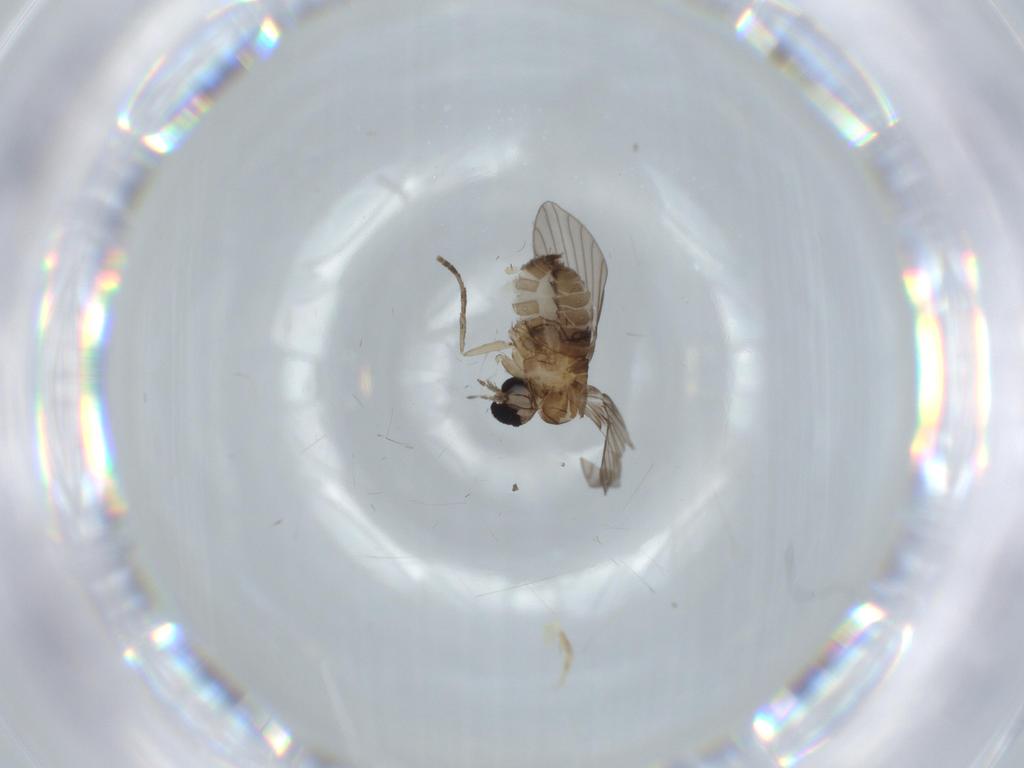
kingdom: Animalia
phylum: Arthropoda
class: Insecta
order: Diptera
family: Psychodidae
